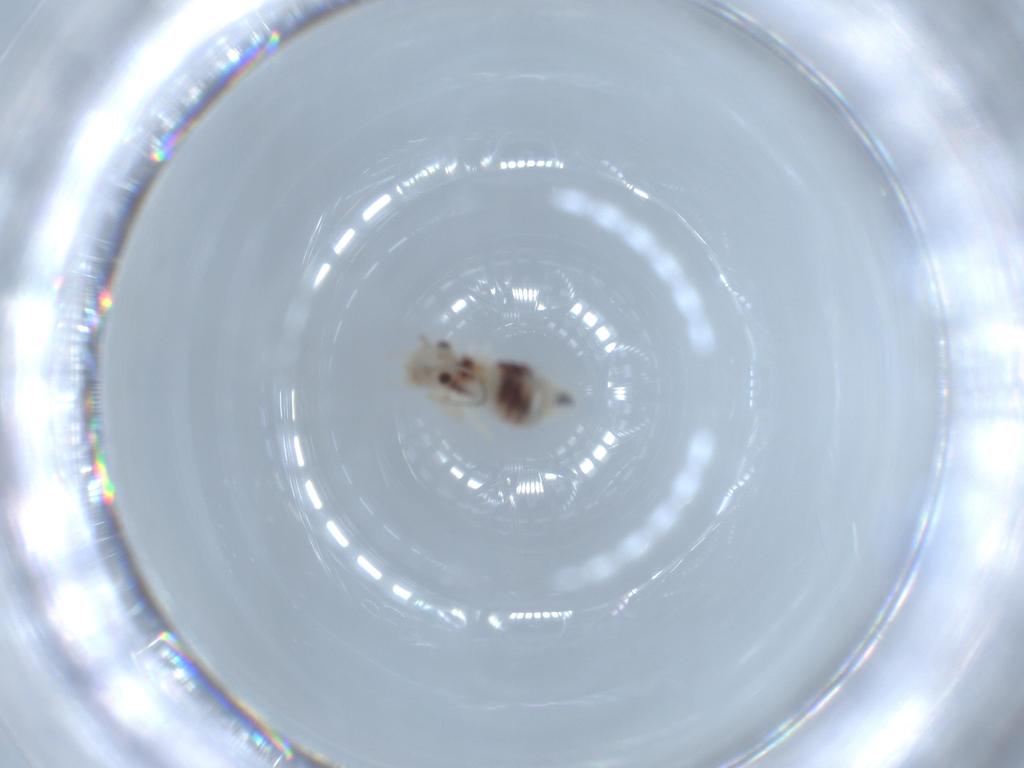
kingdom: Animalia
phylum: Arthropoda
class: Insecta
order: Psocodea
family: Caeciliusidae
